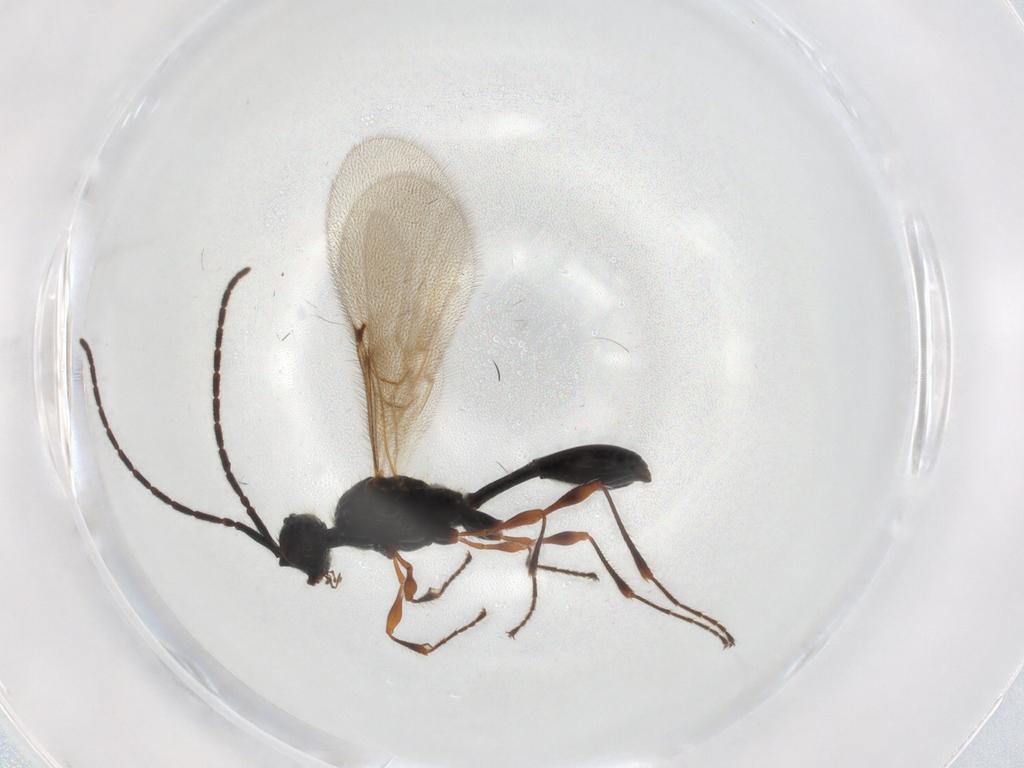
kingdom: Animalia
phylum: Arthropoda
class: Insecta
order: Hymenoptera
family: Diapriidae
